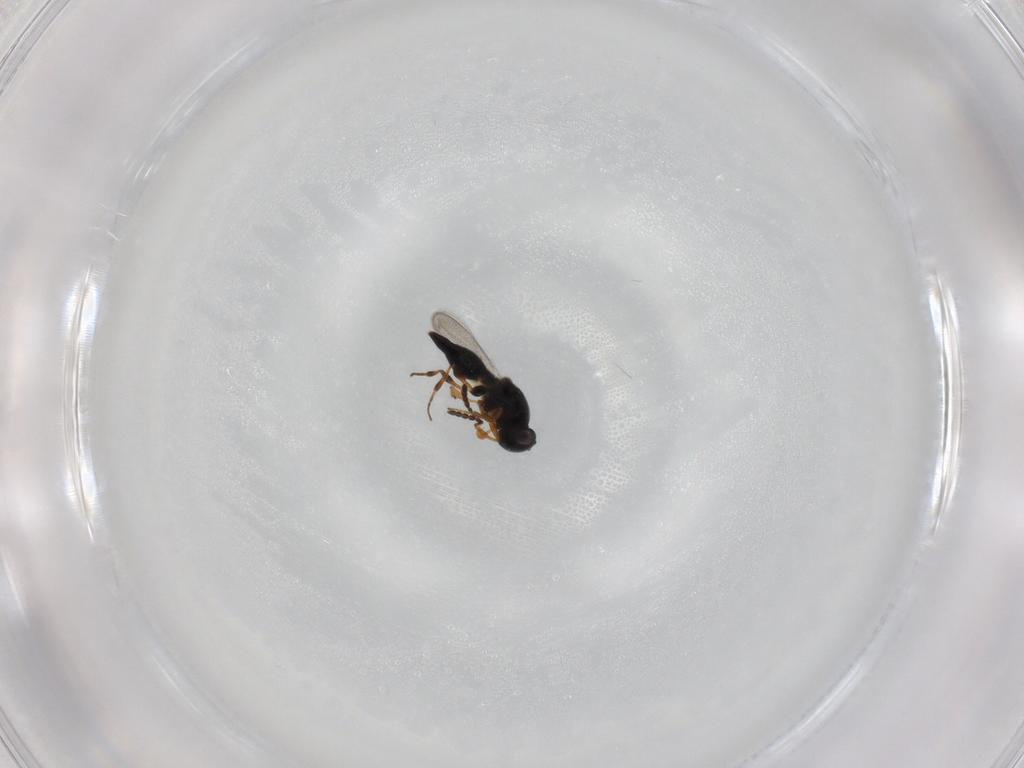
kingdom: Animalia
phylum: Arthropoda
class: Insecta
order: Hymenoptera
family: Platygastridae
